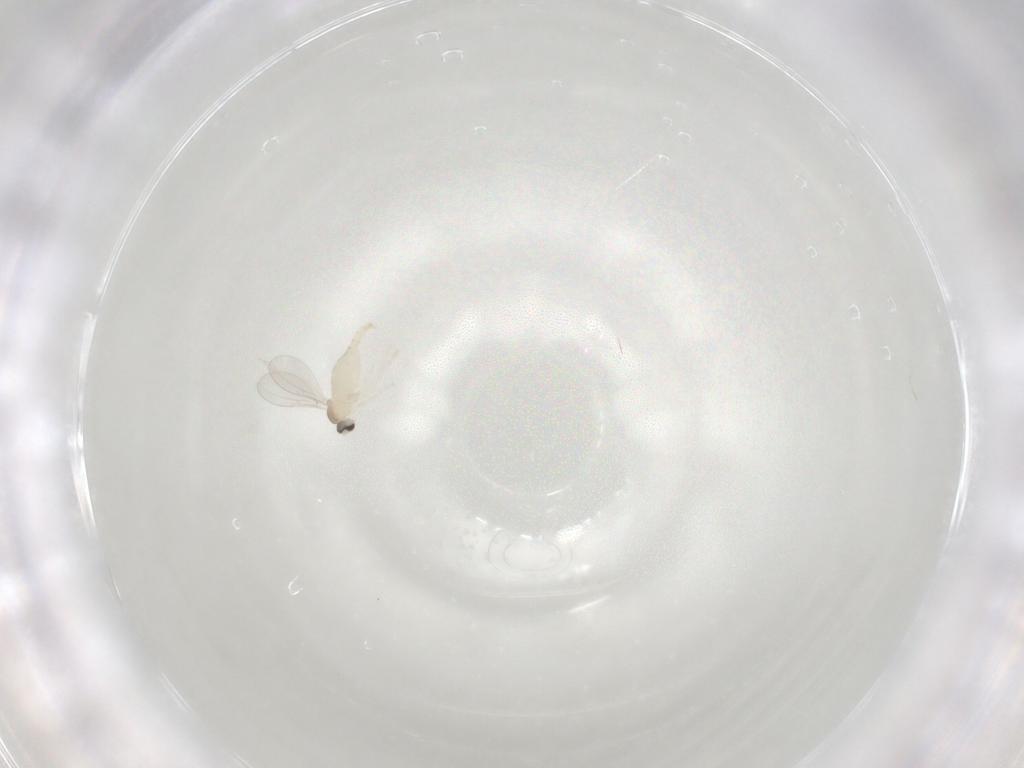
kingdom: Animalia
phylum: Arthropoda
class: Insecta
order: Diptera
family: Cecidomyiidae
